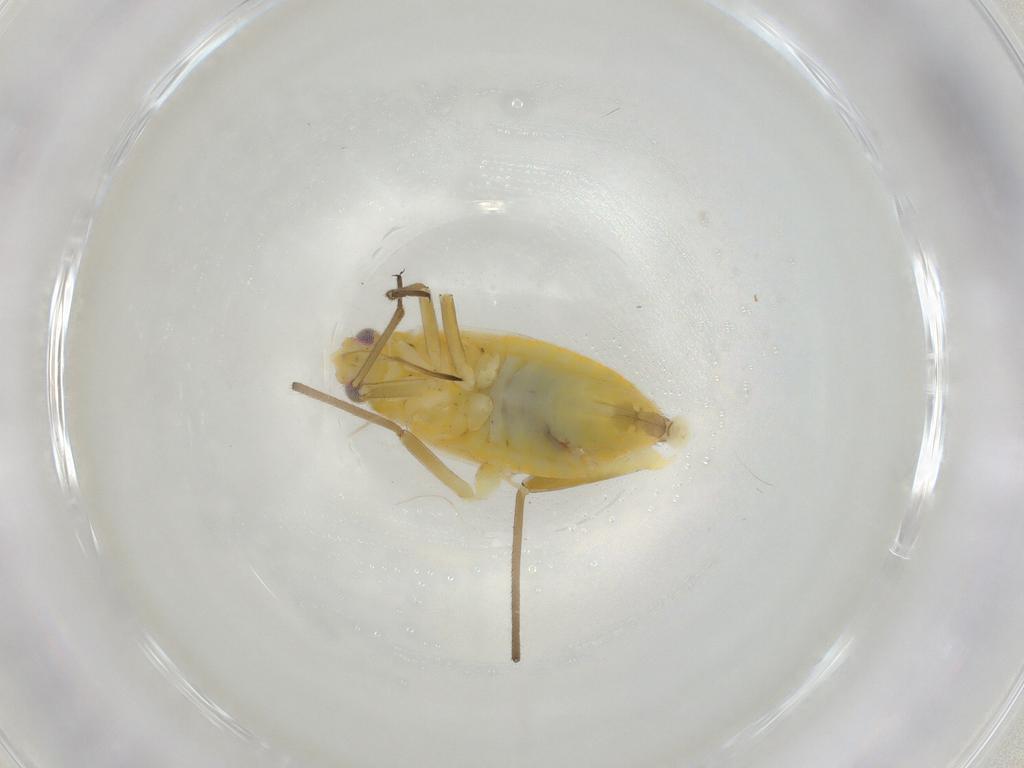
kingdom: Animalia
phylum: Arthropoda
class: Insecta
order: Hemiptera
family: Miridae
